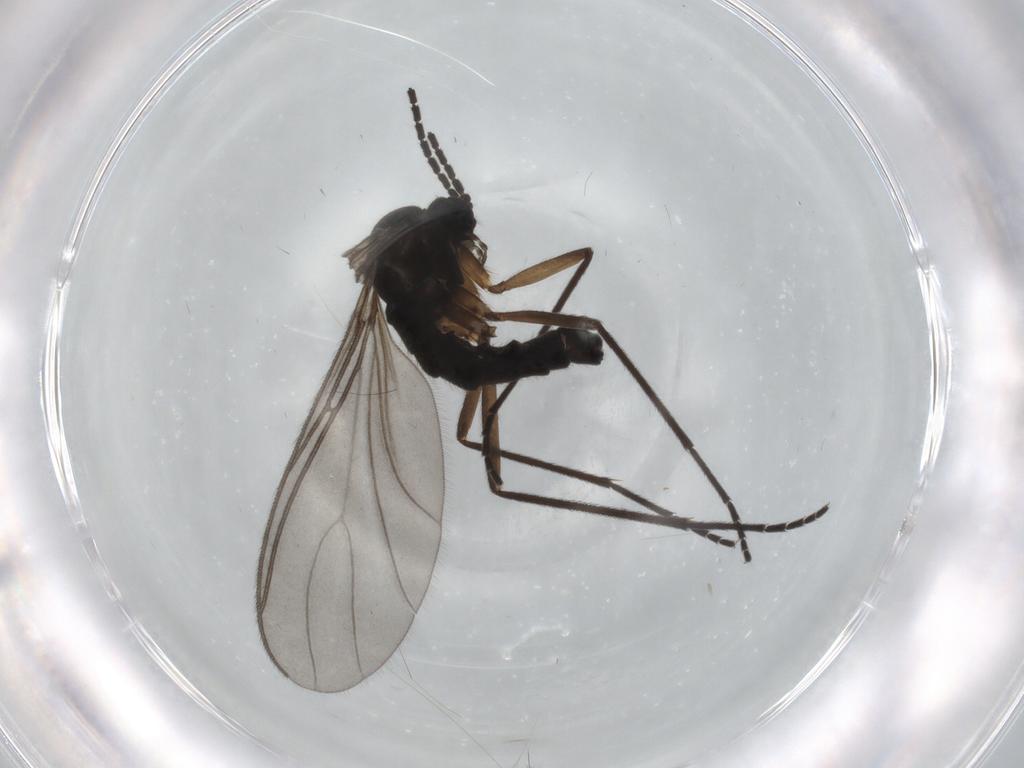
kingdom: Animalia
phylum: Arthropoda
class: Insecta
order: Diptera
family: Sciaridae
